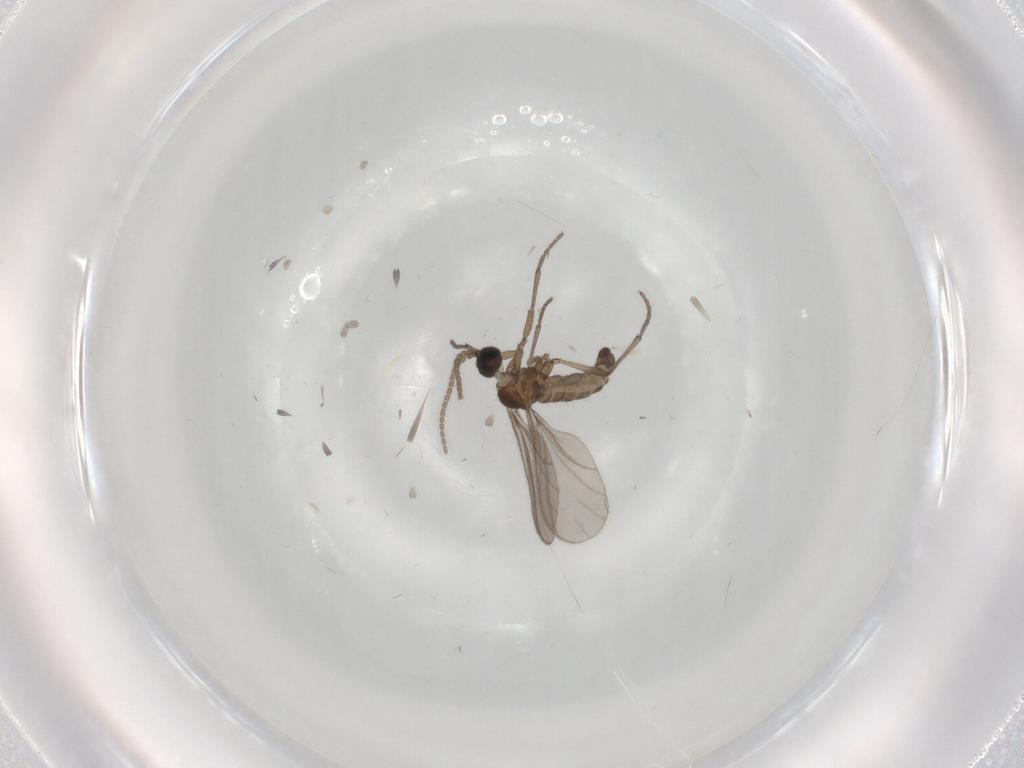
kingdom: Animalia
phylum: Arthropoda
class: Insecta
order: Diptera
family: Sciaridae
